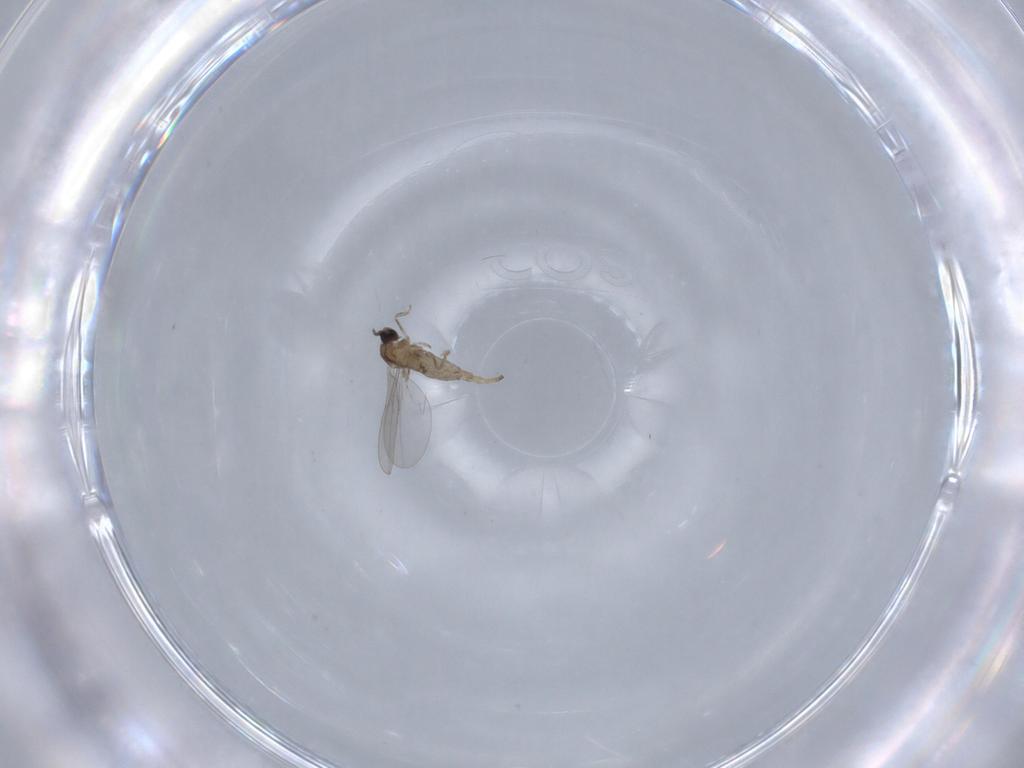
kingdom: Animalia
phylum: Arthropoda
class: Insecta
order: Diptera
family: Cecidomyiidae
